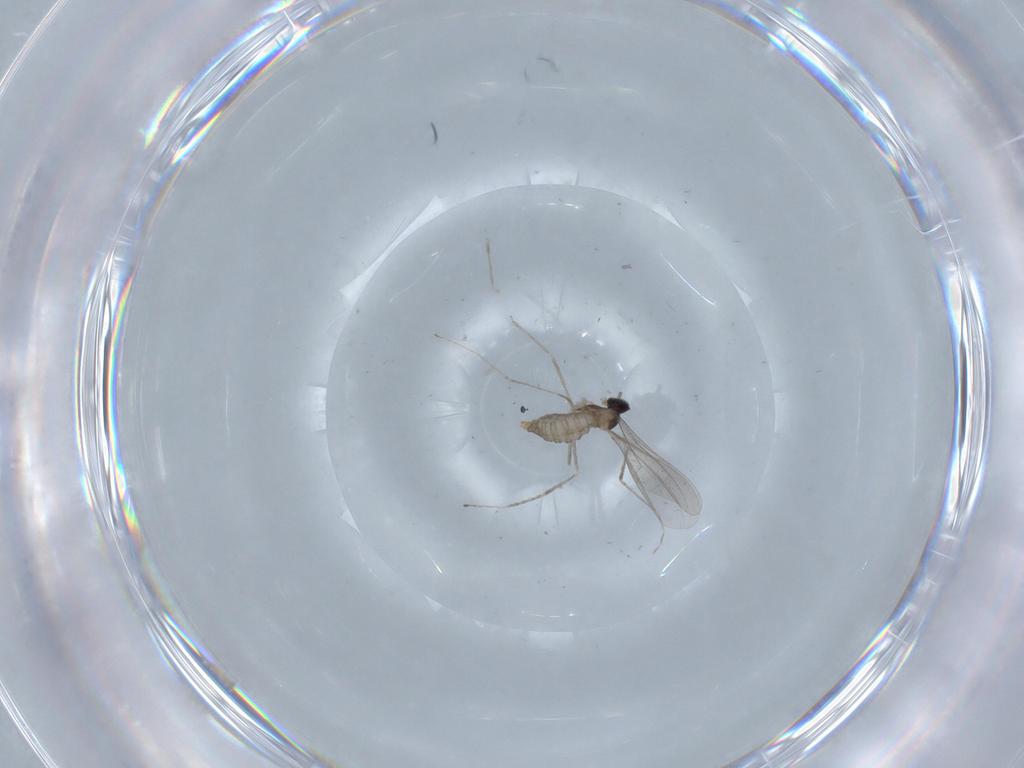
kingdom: Animalia
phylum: Arthropoda
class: Insecta
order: Diptera
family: Cecidomyiidae
